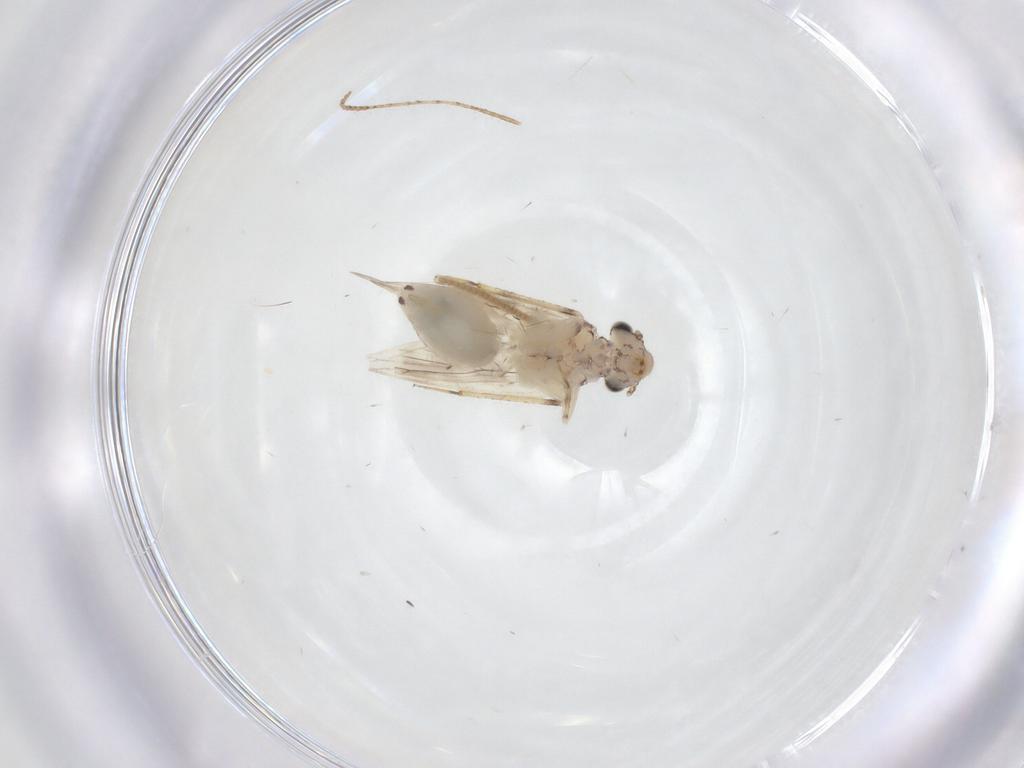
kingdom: Animalia
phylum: Arthropoda
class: Insecta
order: Psocodea
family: Lepidopsocidae
